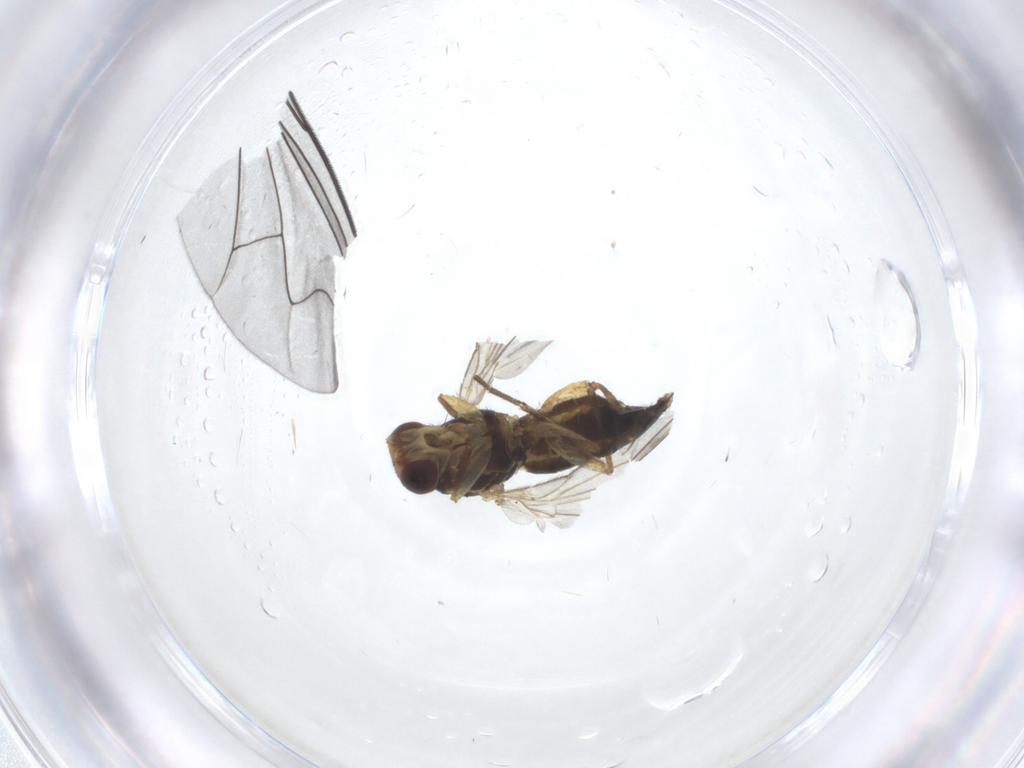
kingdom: Animalia
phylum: Arthropoda
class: Insecta
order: Diptera
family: Agromyzidae
